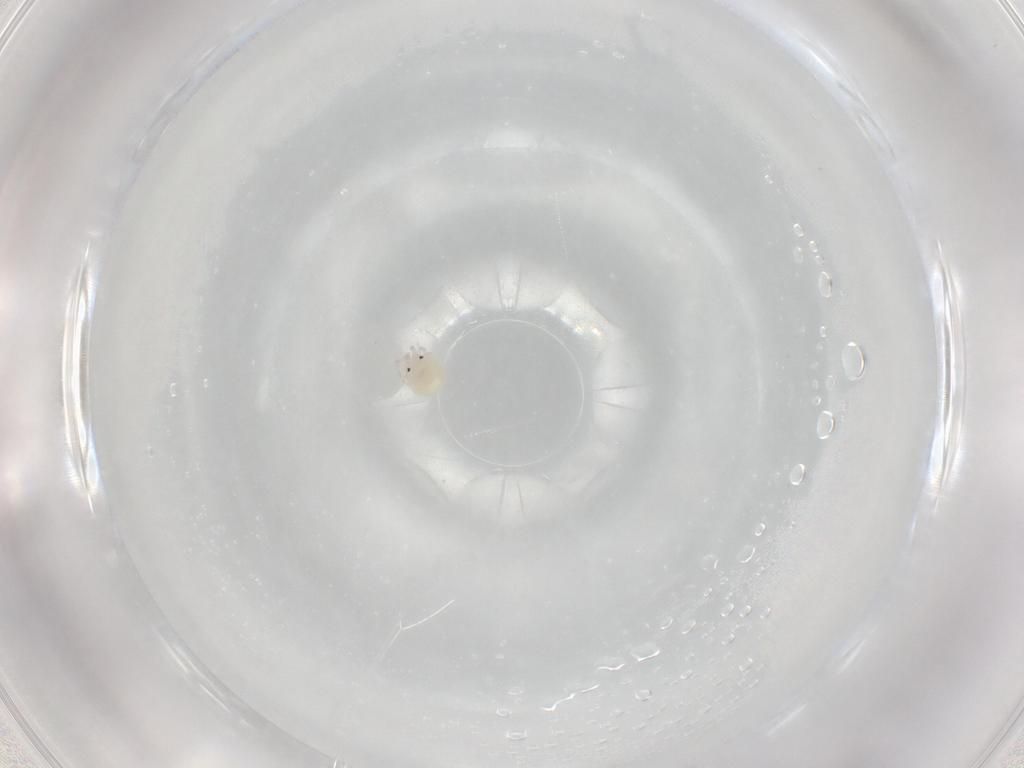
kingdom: Animalia
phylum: Arthropoda
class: Arachnida
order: Trombidiformes
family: Lebertiidae
